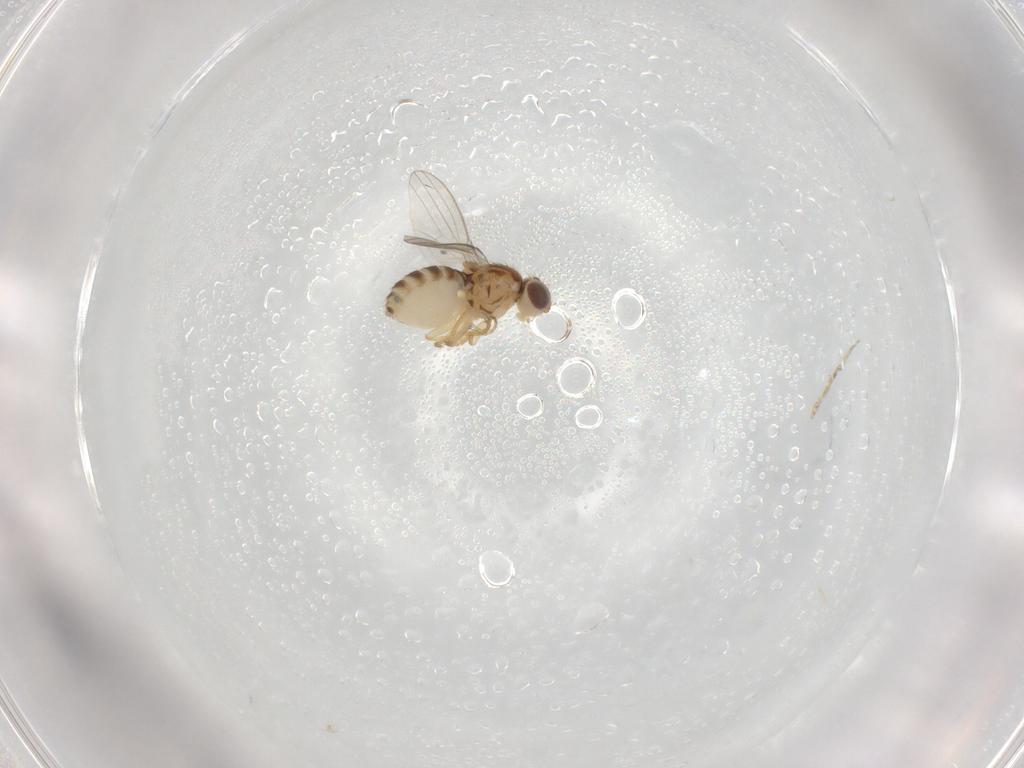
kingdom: Animalia
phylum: Arthropoda
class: Insecta
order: Diptera
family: Chyromyidae
